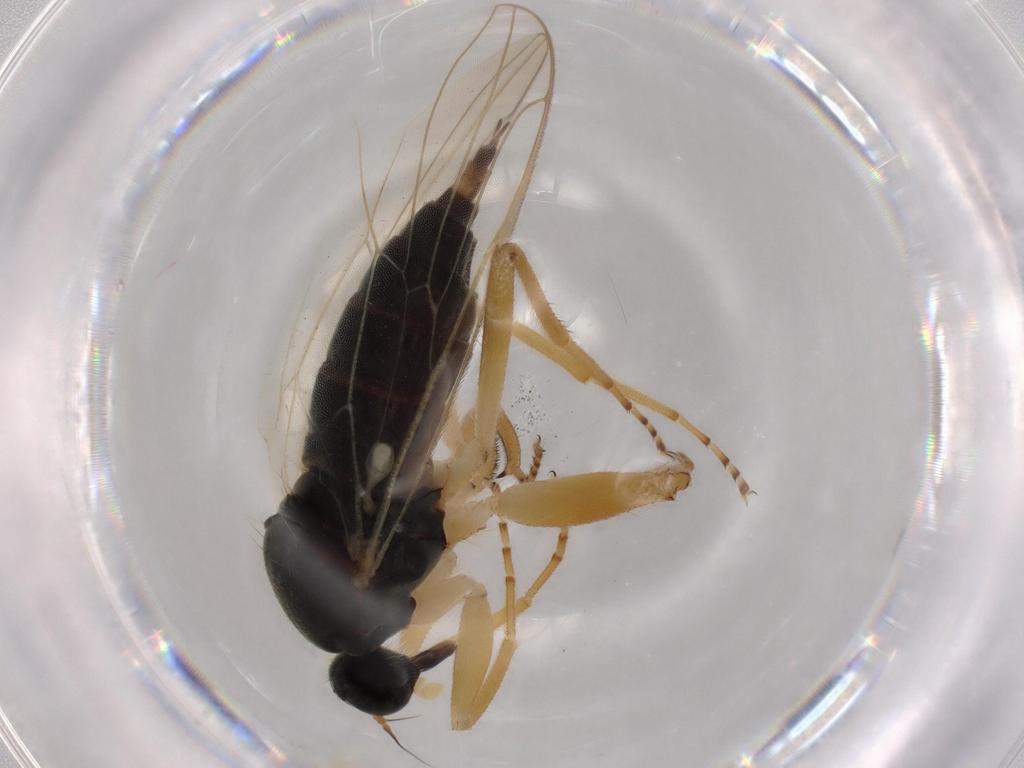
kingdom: Animalia
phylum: Arthropoda
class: Insecta
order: Diptera
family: Hybotidae
